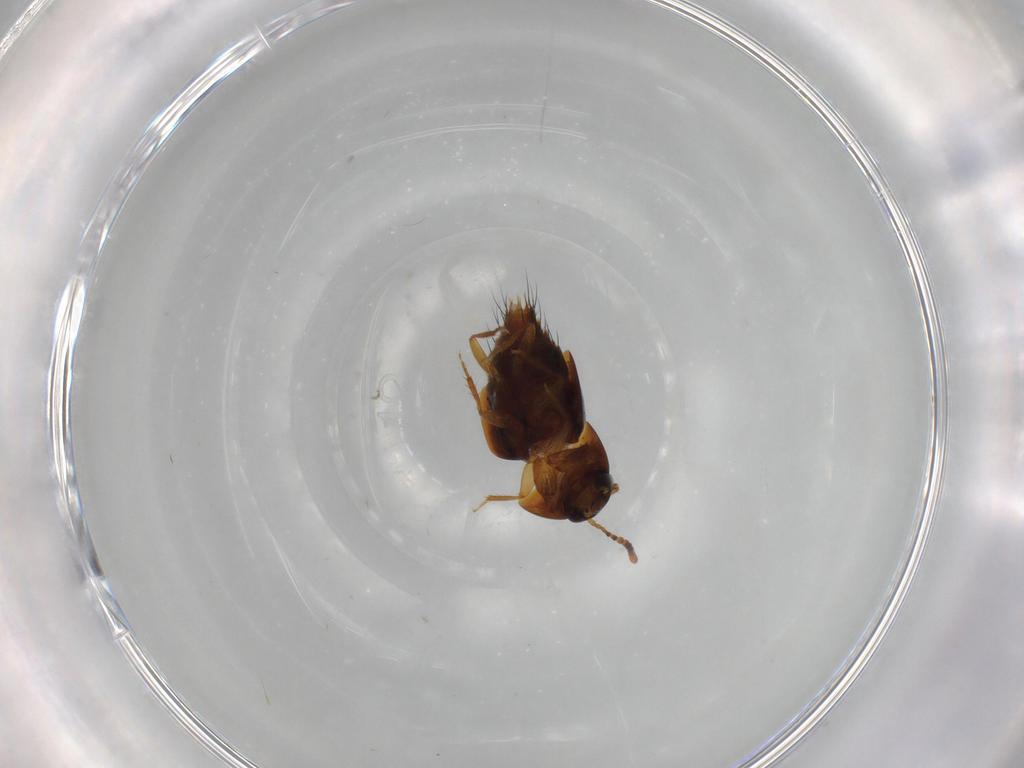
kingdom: Animalia
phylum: Arthropoda
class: Insecta
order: Coleoptera
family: Staphylinidae
